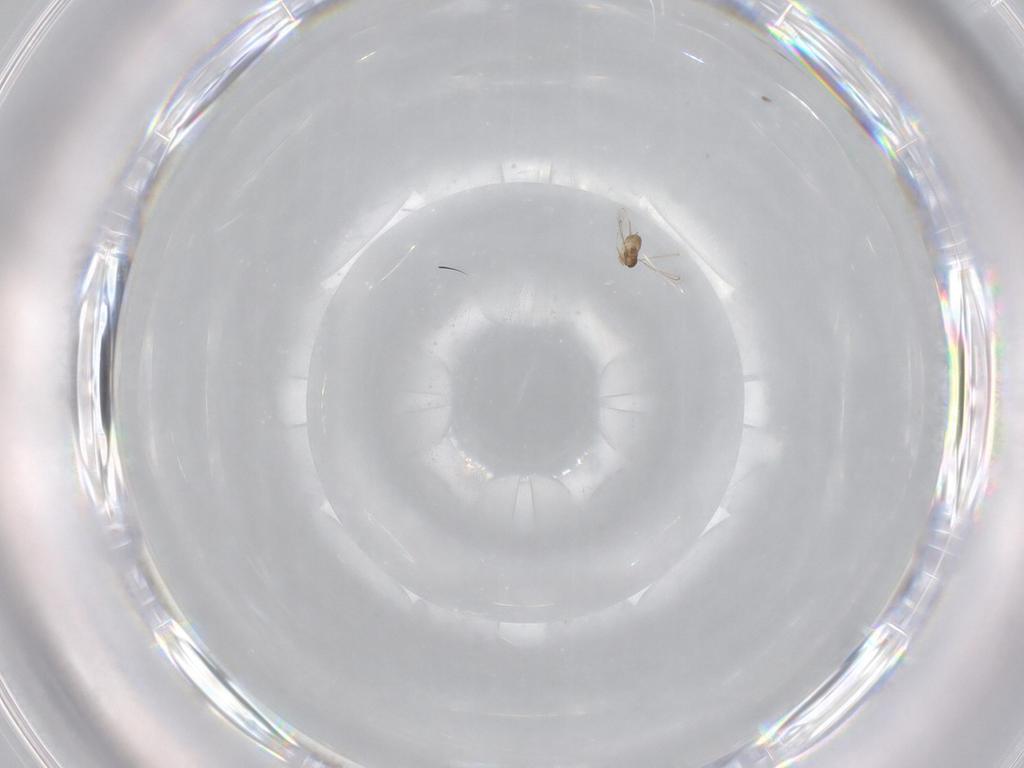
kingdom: Animalia
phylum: Arthropoda
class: Insecta
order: Hymenoptera
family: Mymaridae
